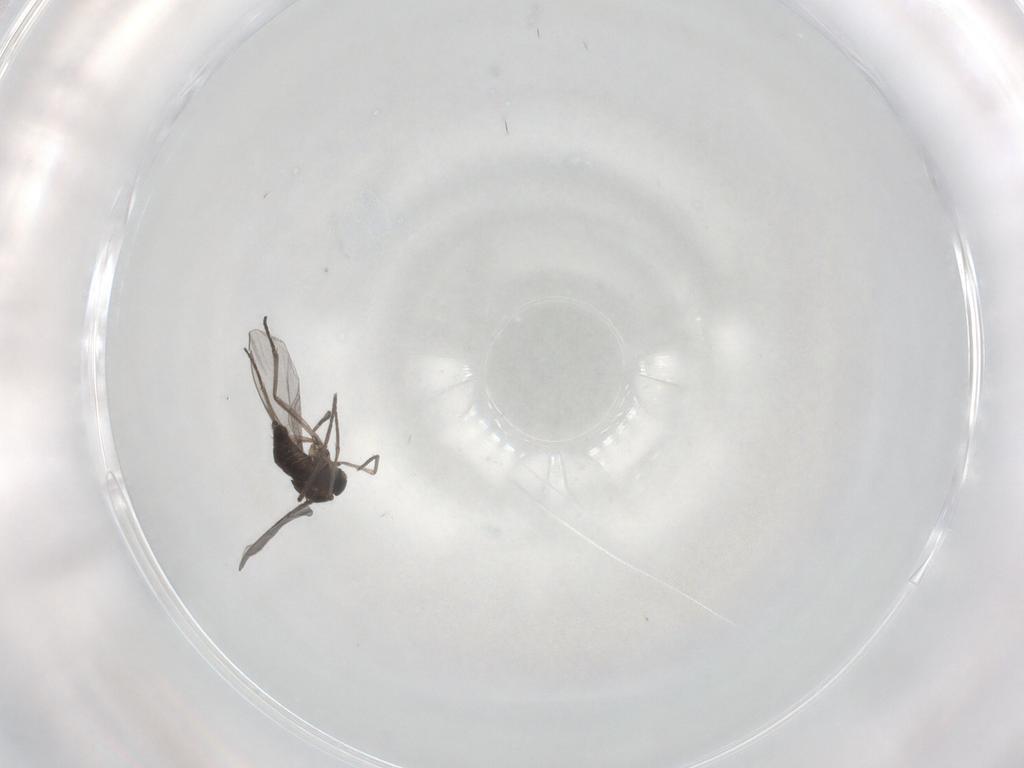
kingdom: Animalia
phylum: Arthropoda
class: Insecta
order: Diptera
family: Cecidomyiidae
